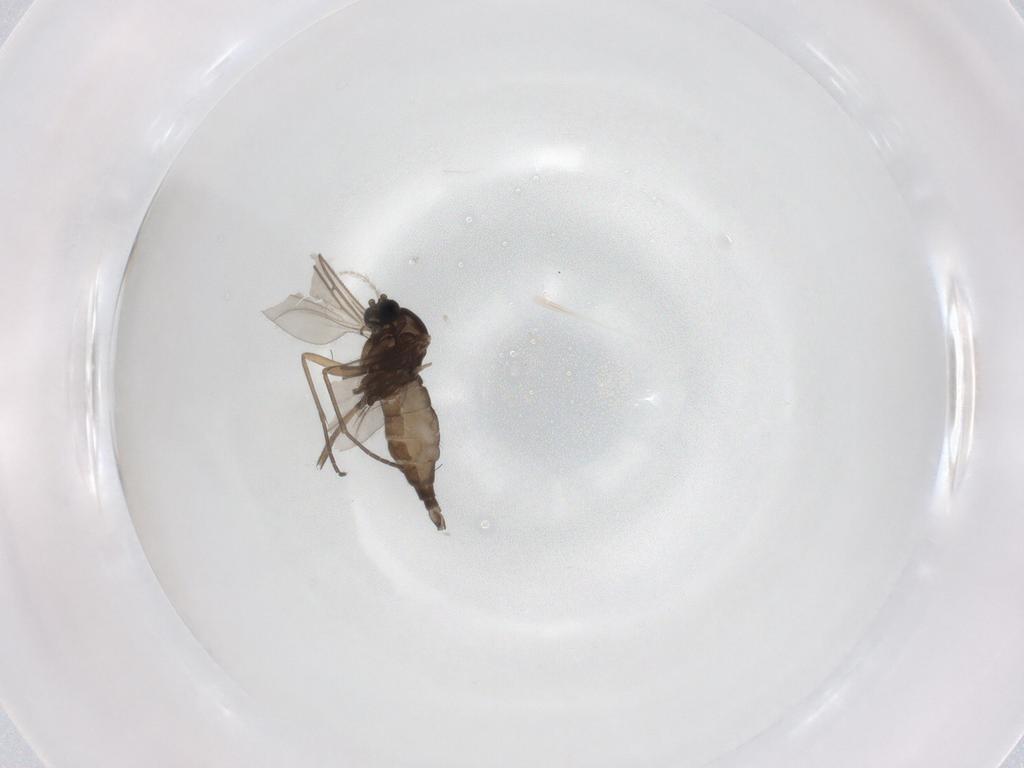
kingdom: Animalia
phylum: Arthropoda
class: Insecta
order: Diptera
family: Sciaridae
